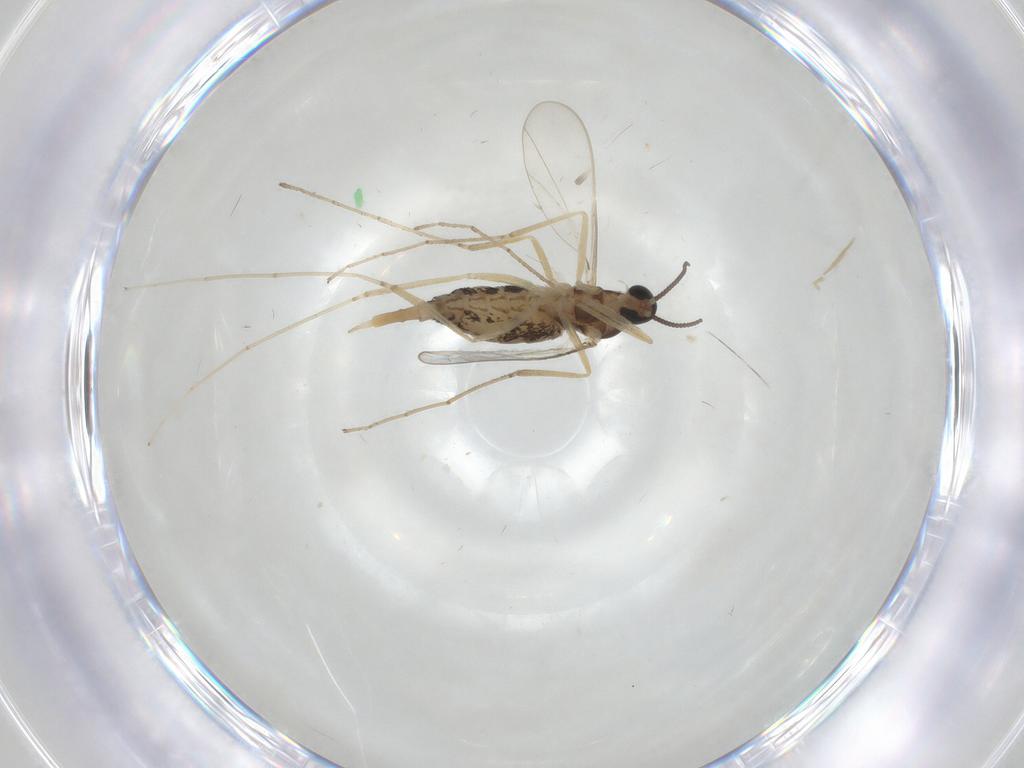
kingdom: Animalia
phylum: Arthropoda
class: Insecta
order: Diptera
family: Cecidomyiidae
